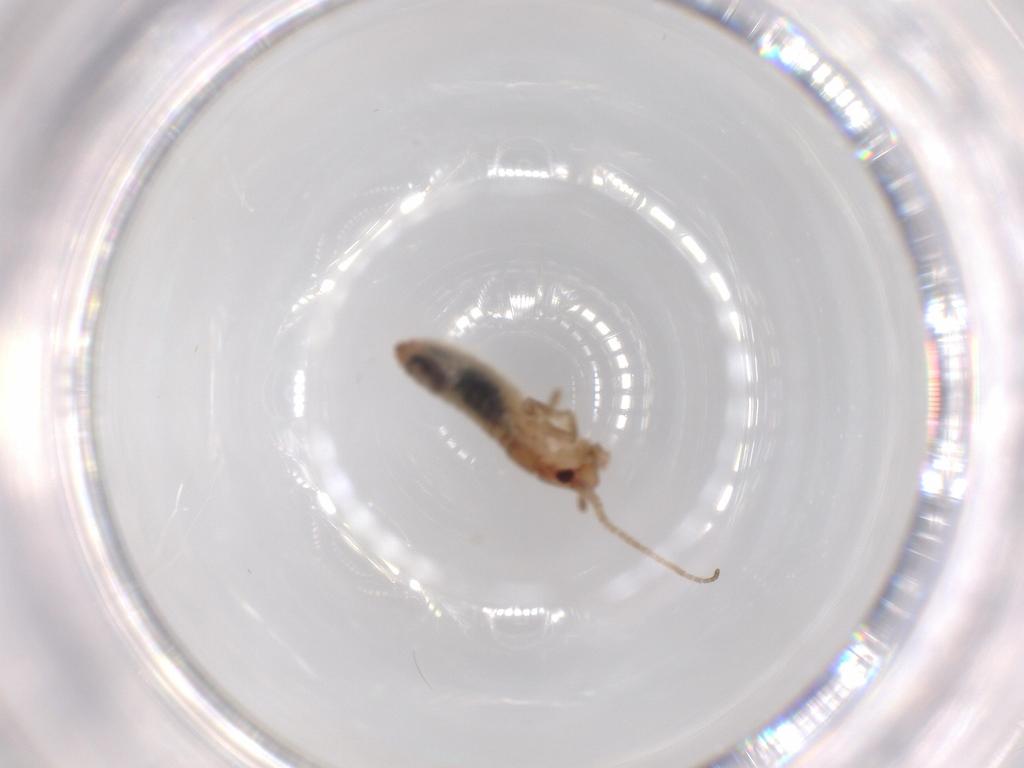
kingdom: Animalia
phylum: Arthropoda
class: Insecta
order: Orthoptera
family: Mogoplistidae
